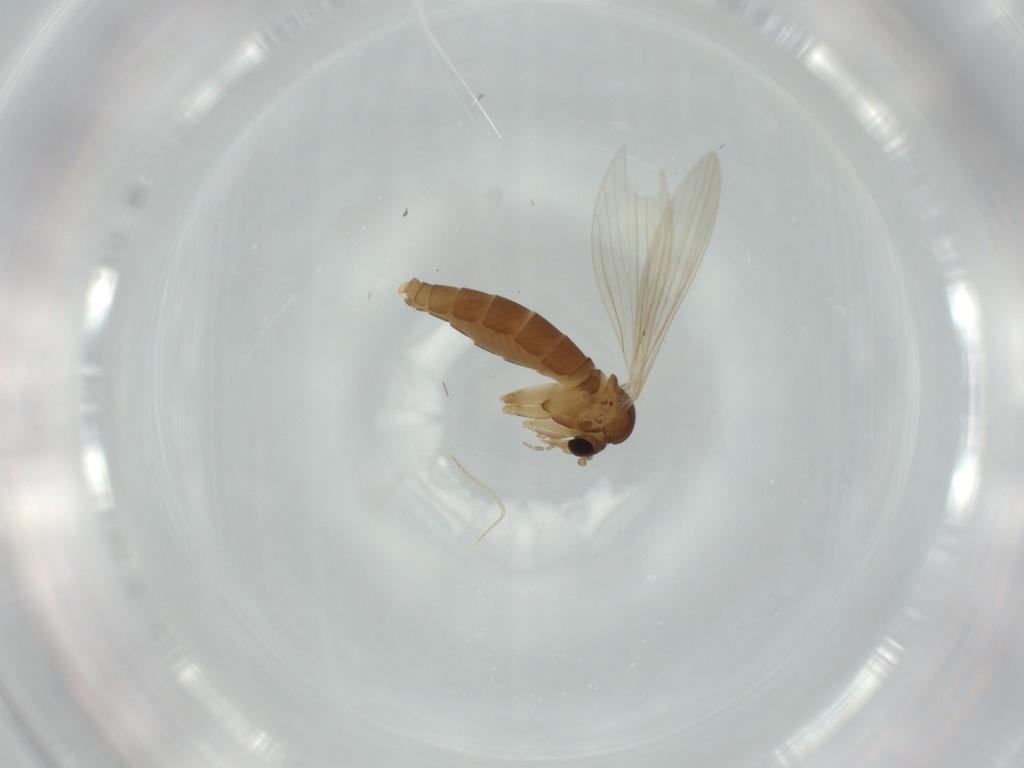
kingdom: Animalia
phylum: Arthropoda
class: Insecta
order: Diptera
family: Psychodidae
